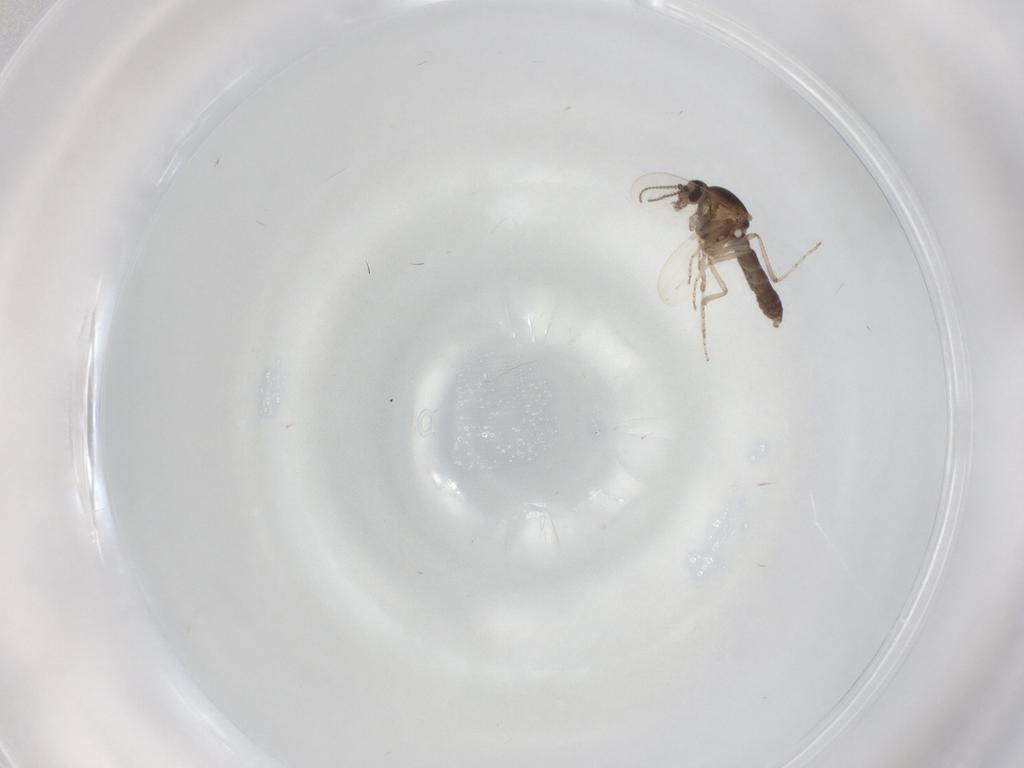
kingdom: Animalia
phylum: Arthropoda
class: Insecta
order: Diptera
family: Ceratopogonidae
